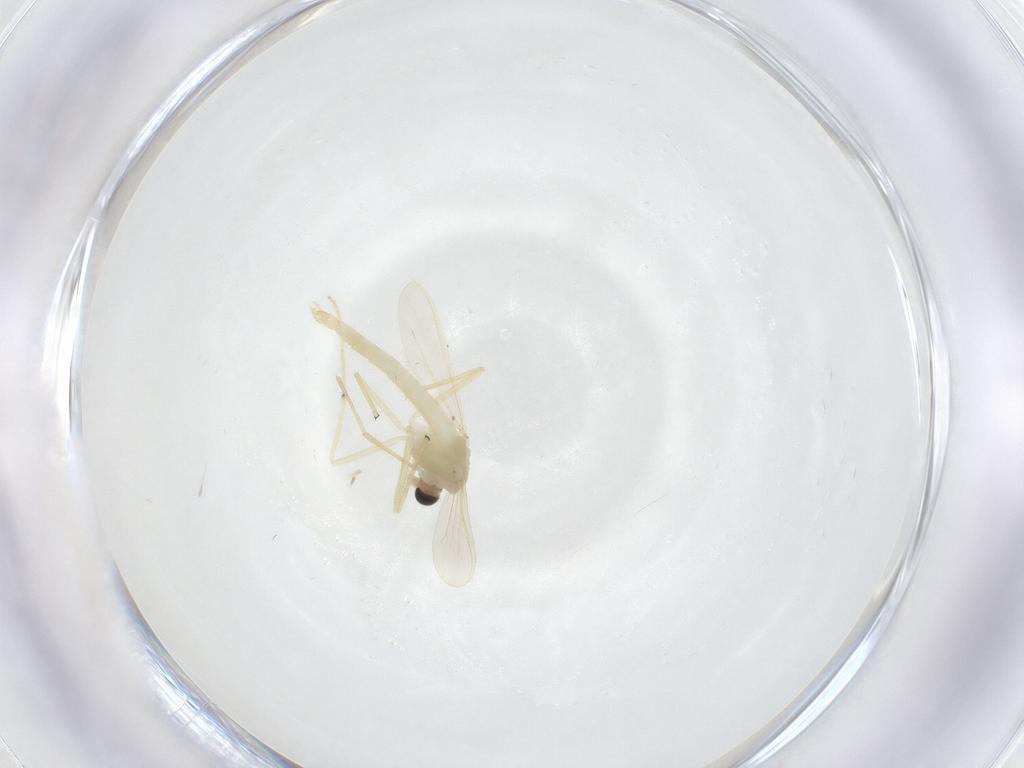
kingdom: Animalia
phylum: Arthropoda
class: Insecta
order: Diptera
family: Chironomidae
